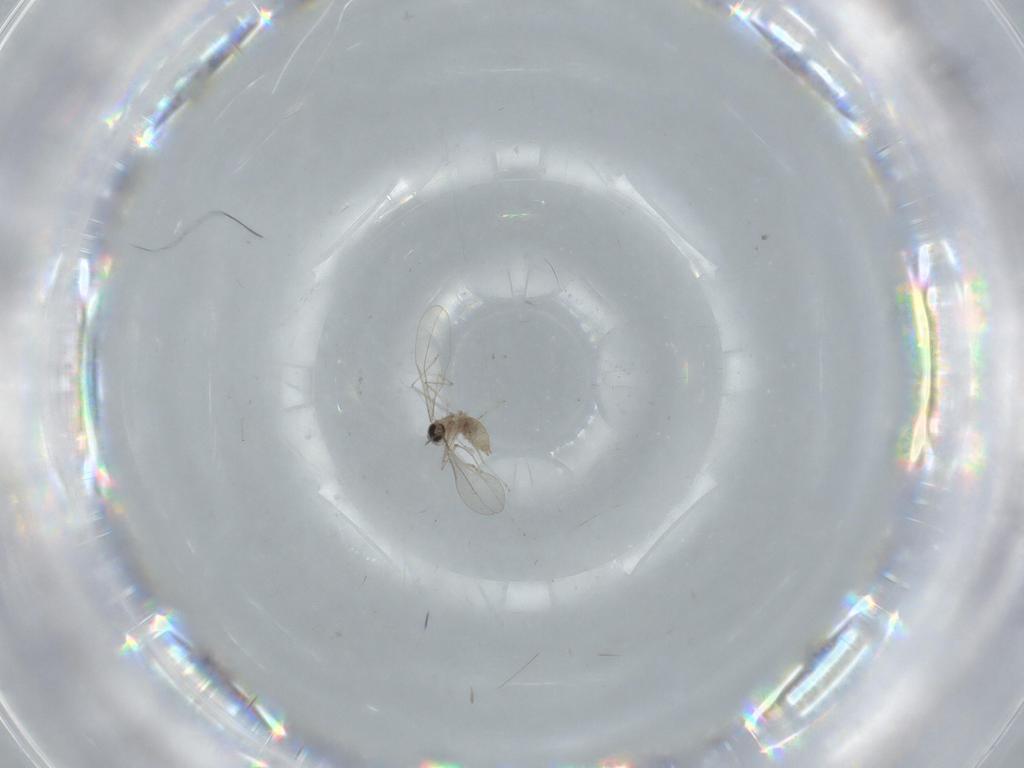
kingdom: Animalia
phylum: Arthropoda
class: Insecta
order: Diptera
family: Cecidomyiidae
